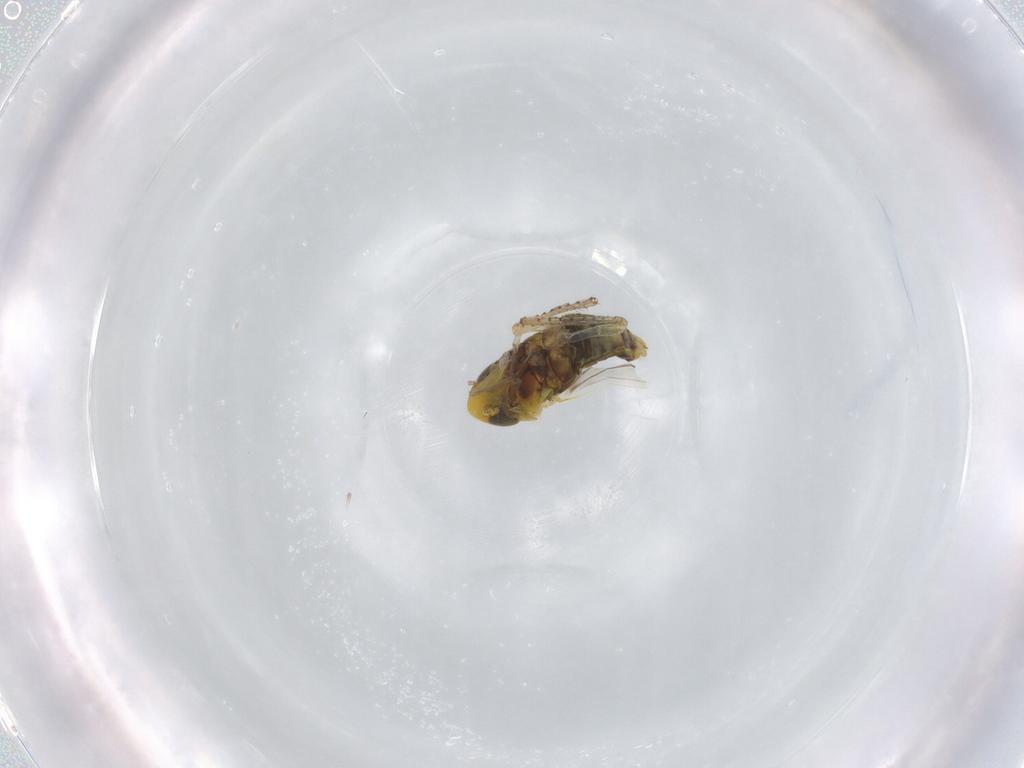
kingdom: Animalia
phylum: Arthropoda
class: Insecta
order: Hemiptera
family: Cicadellidae
